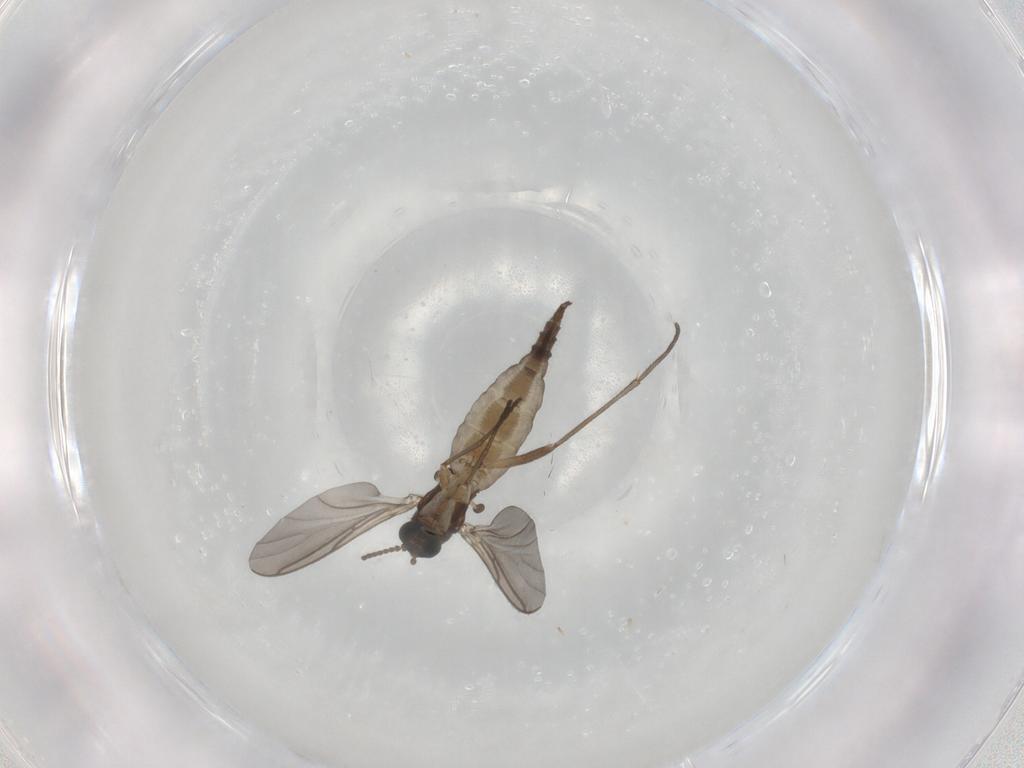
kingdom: Animalia
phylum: Arthropoda
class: Insecta
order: Diptera
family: Sciaridae
